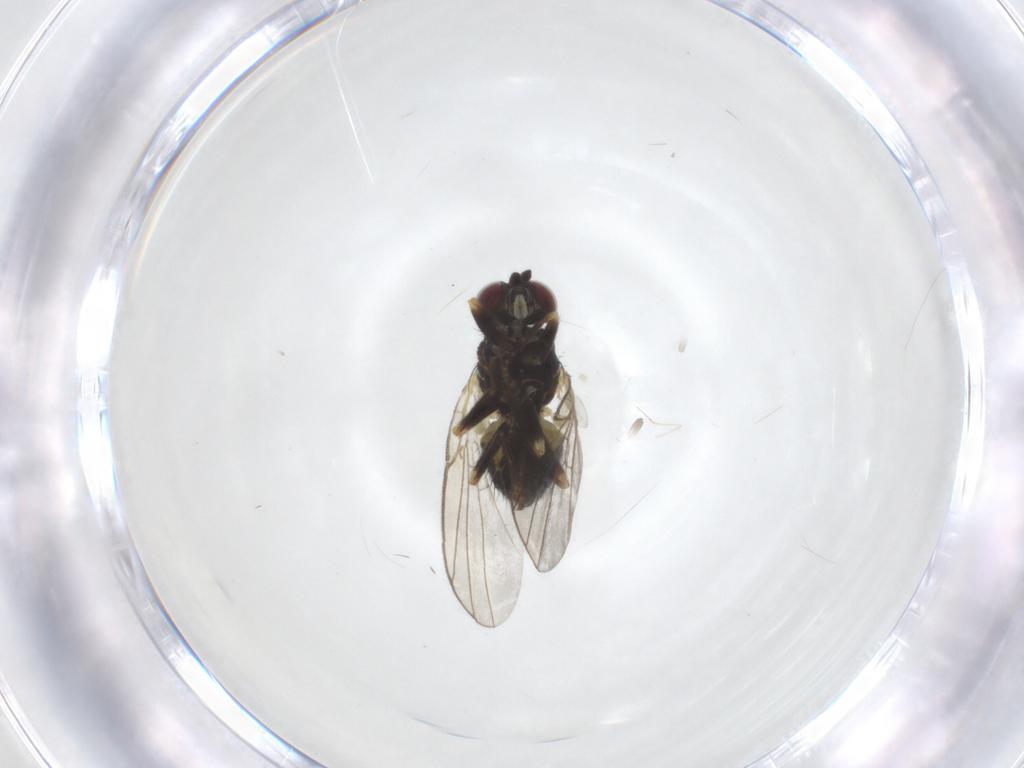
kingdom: Animalia
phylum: Arthropoda
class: Insecta
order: Diptera
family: Agromyzidae
